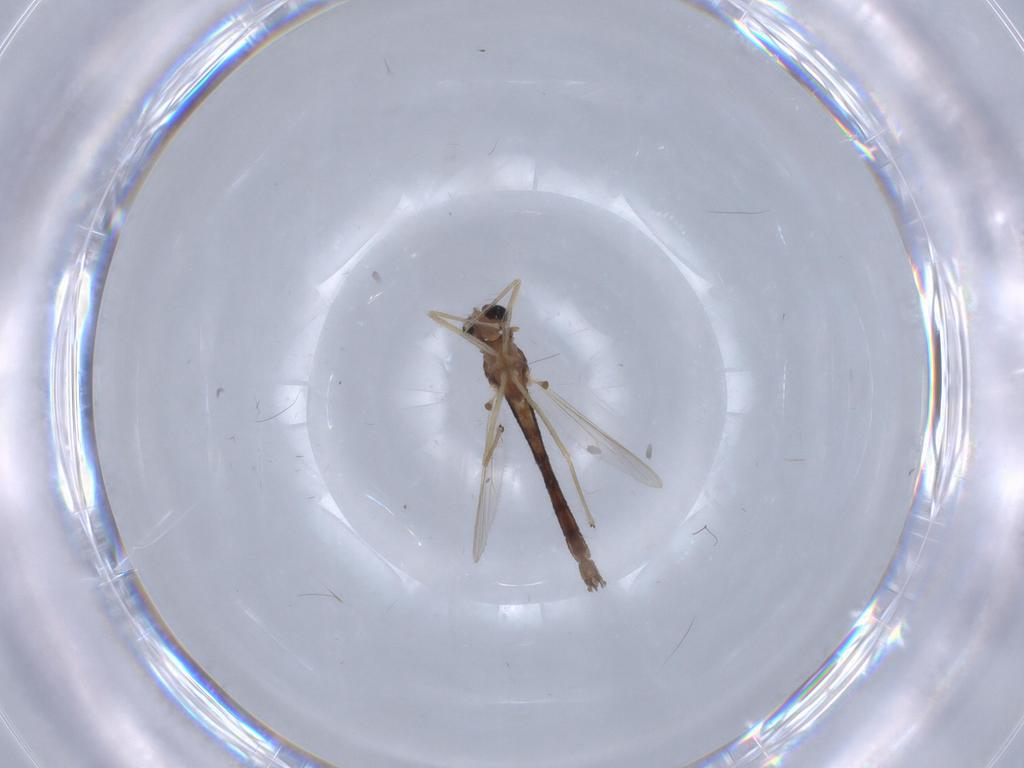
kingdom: Animalia
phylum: Arthropoda
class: Insecta
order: Diptera
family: Chironomidae
